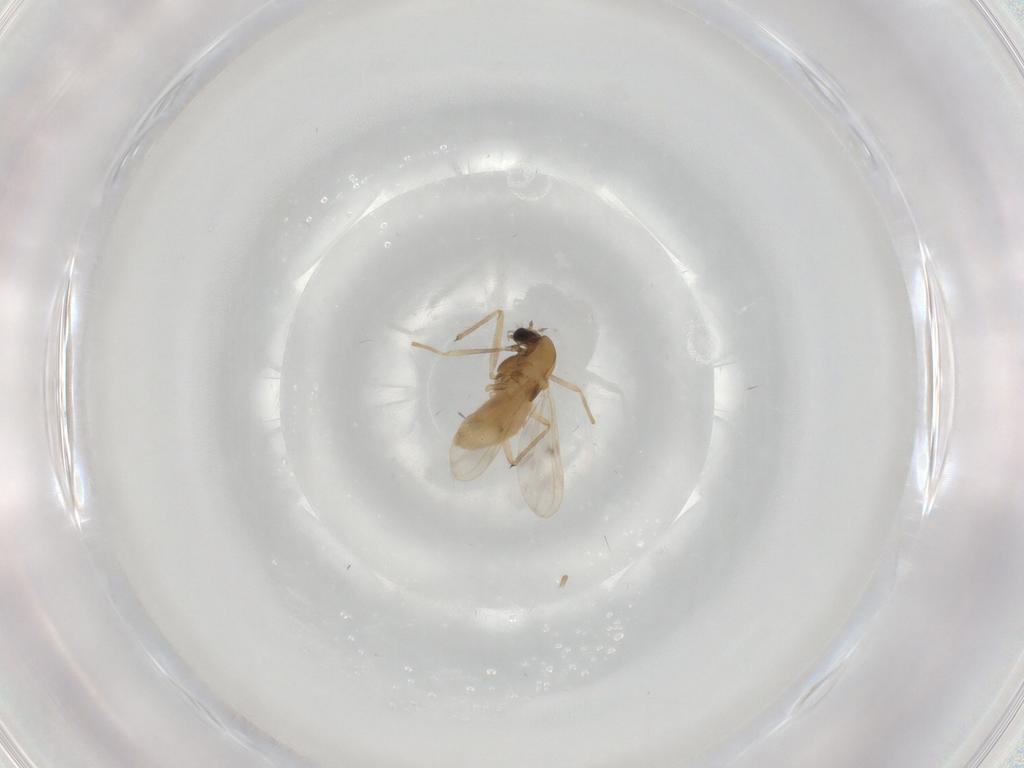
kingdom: Animalia
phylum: Arthropoda
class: Insecta
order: Diptera
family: Chironomidae
